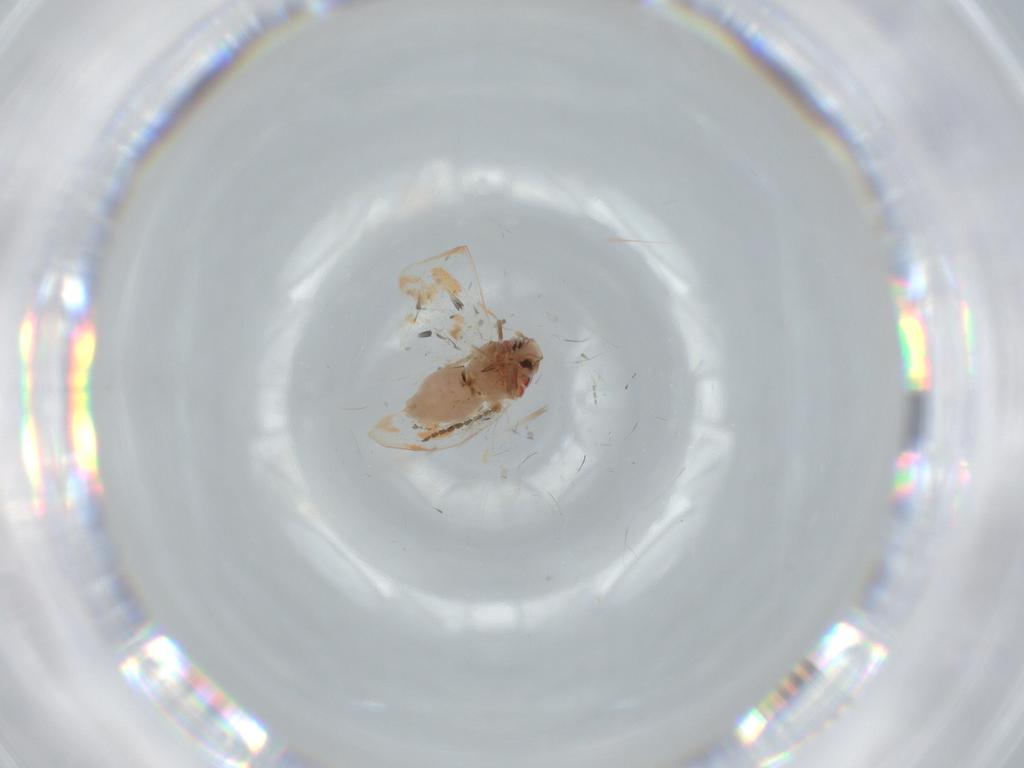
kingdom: Animalia
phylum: Arthropoda
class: Insecta
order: Hemiptera
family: Aleyrodidae
